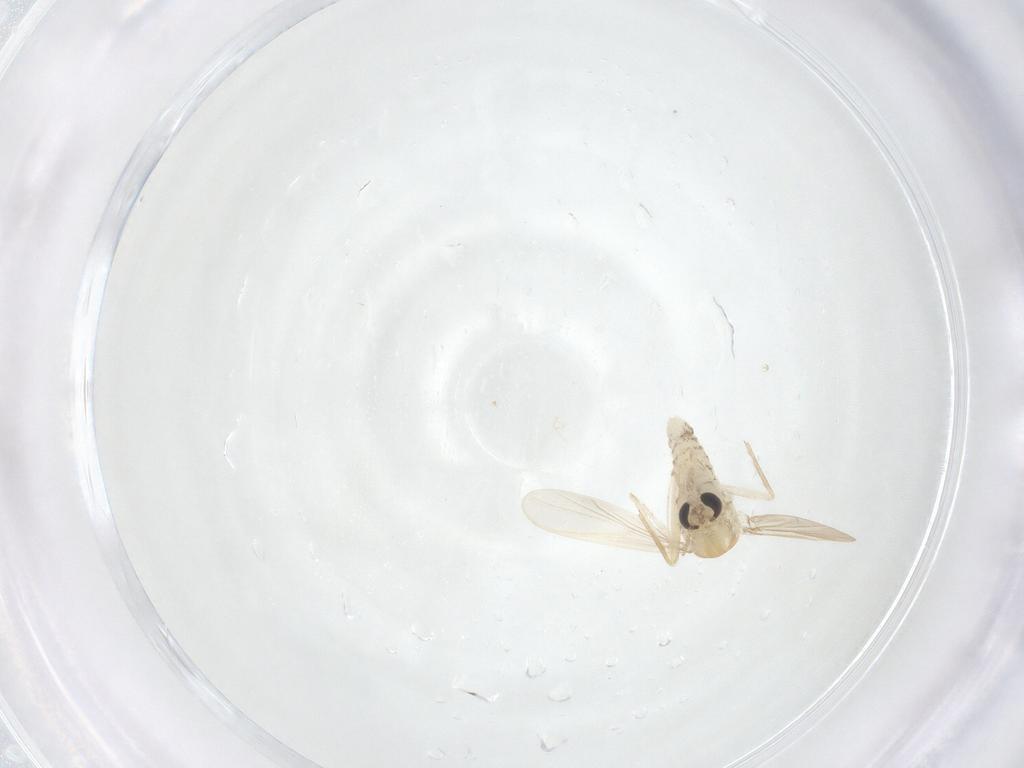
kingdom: Animalia
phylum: Arthropoda
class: Insecta
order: Diptera
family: Chironomidae
